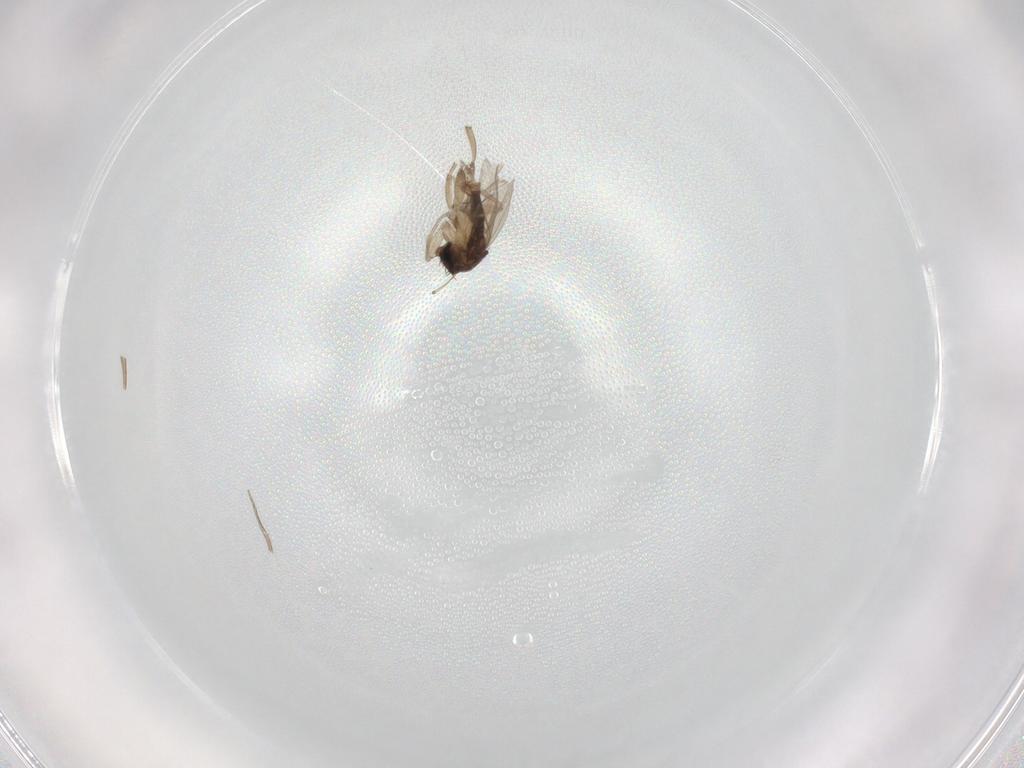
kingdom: Animalia
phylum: Arthropoda
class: Insecta
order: Diptera
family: Phoridae
